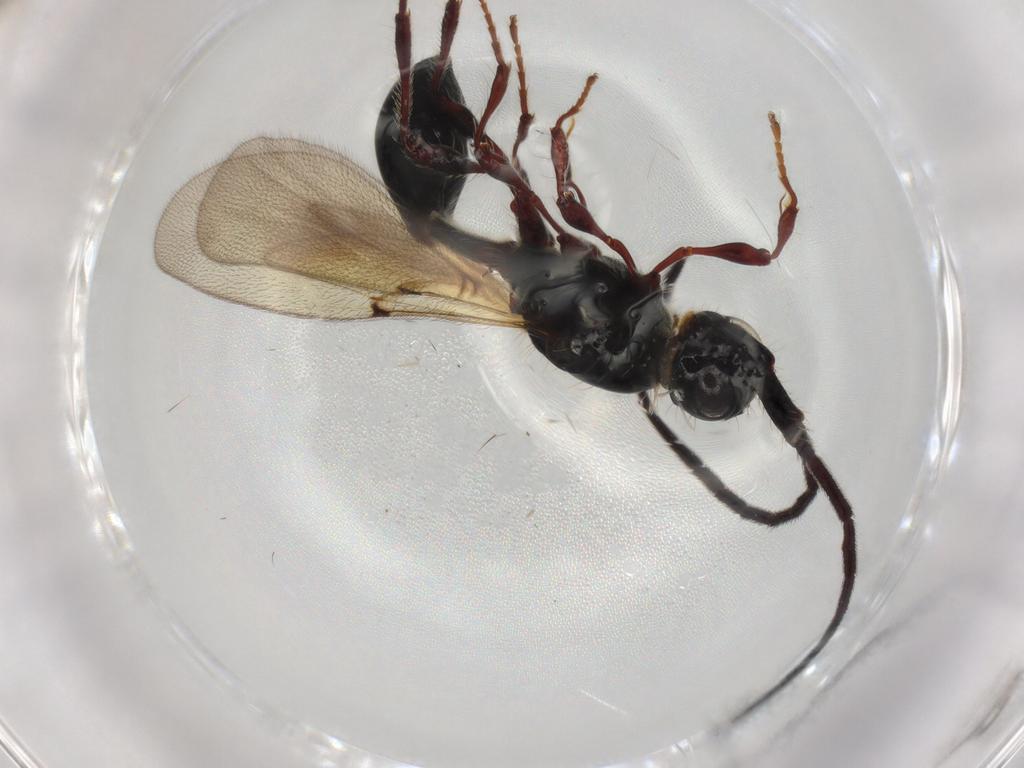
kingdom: Animalia
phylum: Arthropoda
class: Insecta
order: Hymenoptera
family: Diapriidae
